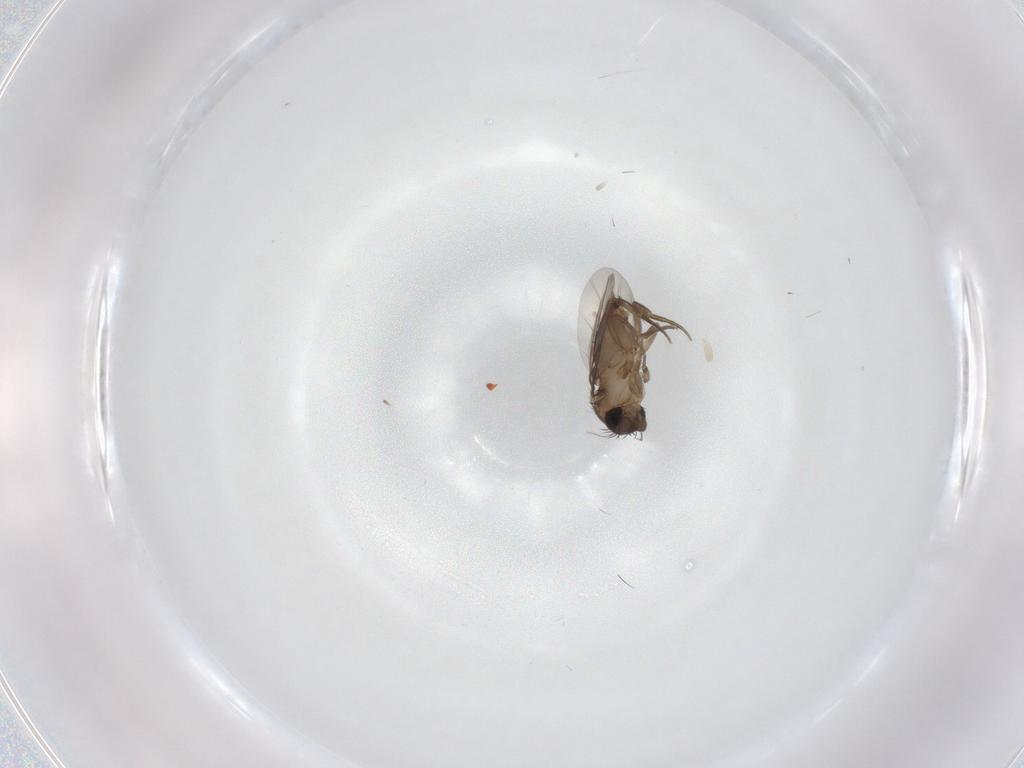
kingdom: Animalia
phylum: Arthropoda
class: Insecta
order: Diptera
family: Phoridae
